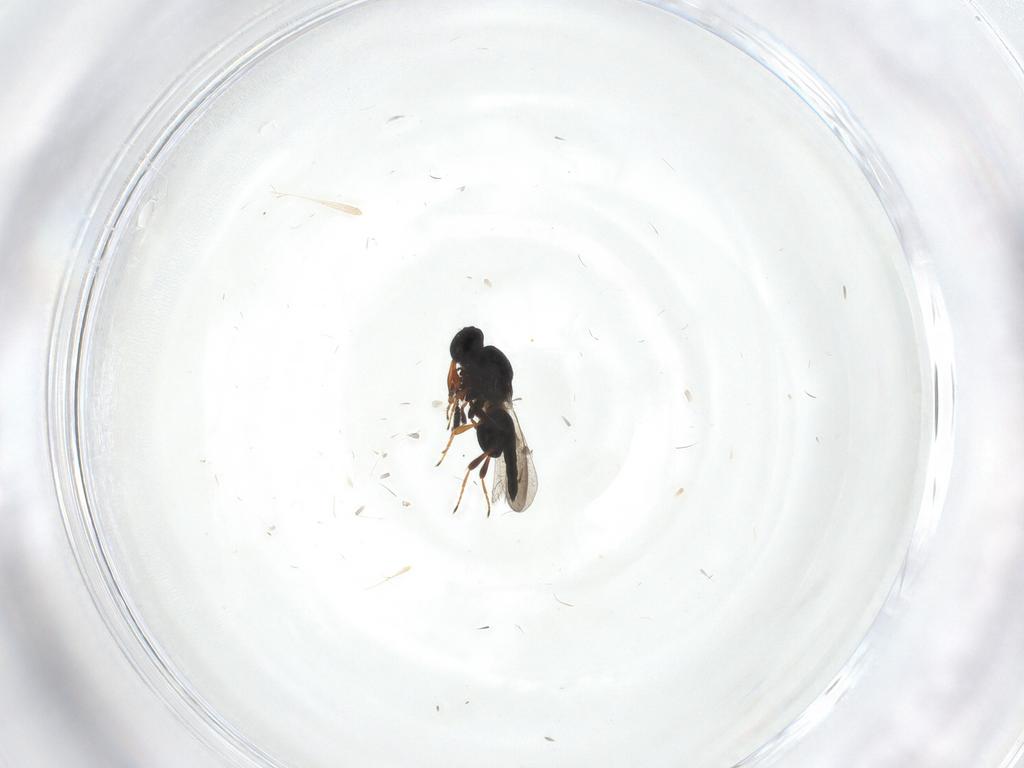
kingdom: Animalia
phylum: Arthropoda
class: Insecta
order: Hymenoptera
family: Platygastridae
